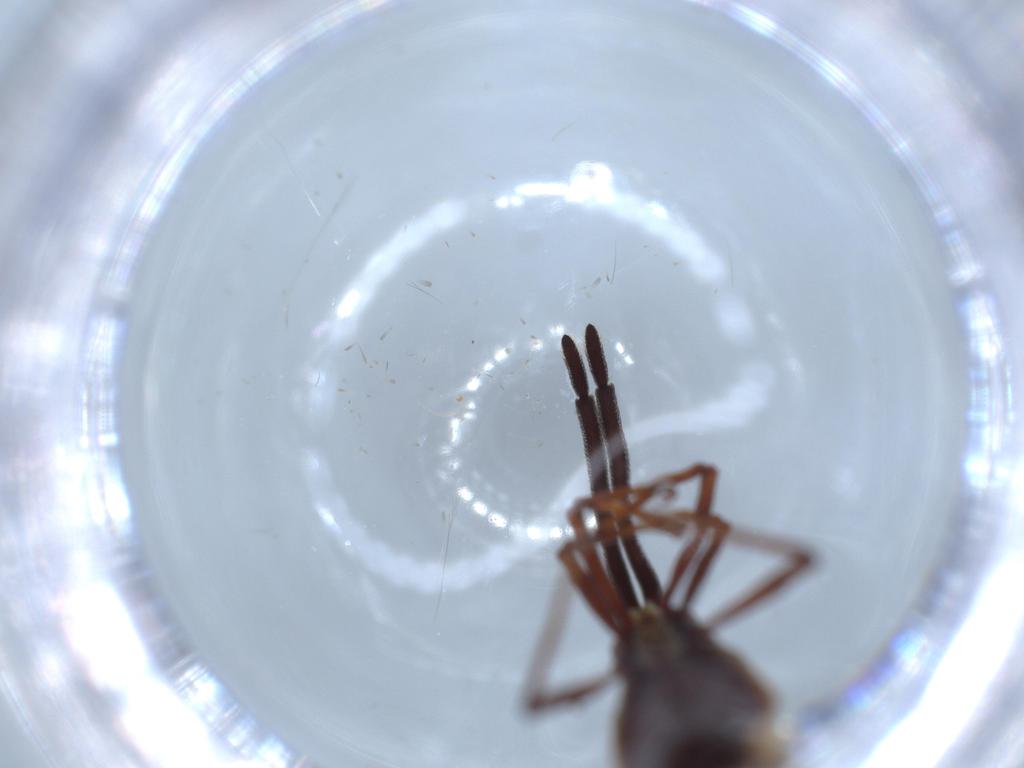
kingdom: Animalia
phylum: Arthropoda
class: Insecta
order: Hemiptera
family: Tingidae
